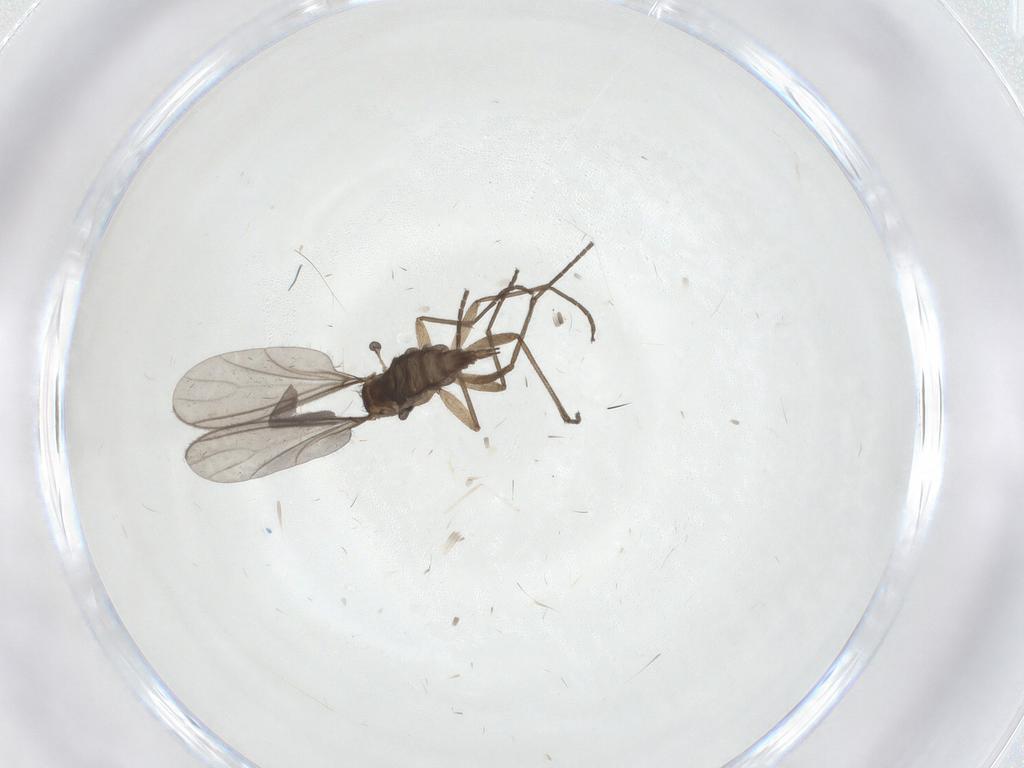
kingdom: Animalia
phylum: Arthropoda
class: Insecta
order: Diptera
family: Sciaridae
